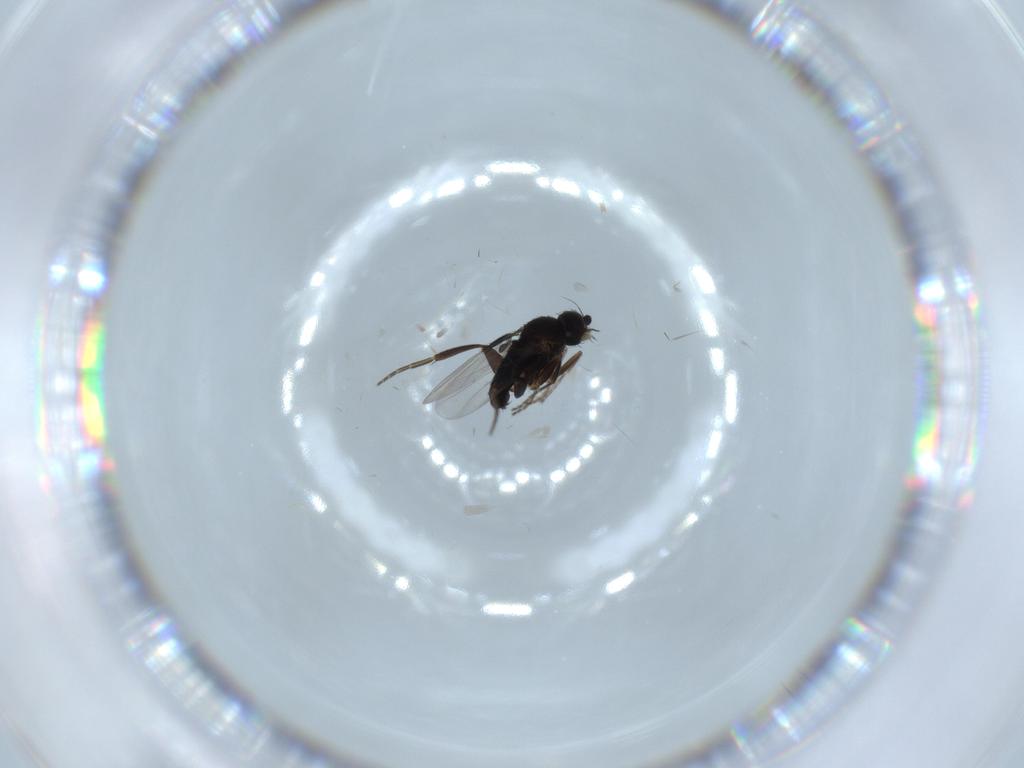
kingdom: Animalia
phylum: Arthropoda
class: Insecta
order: Diptera
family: Phoridae
